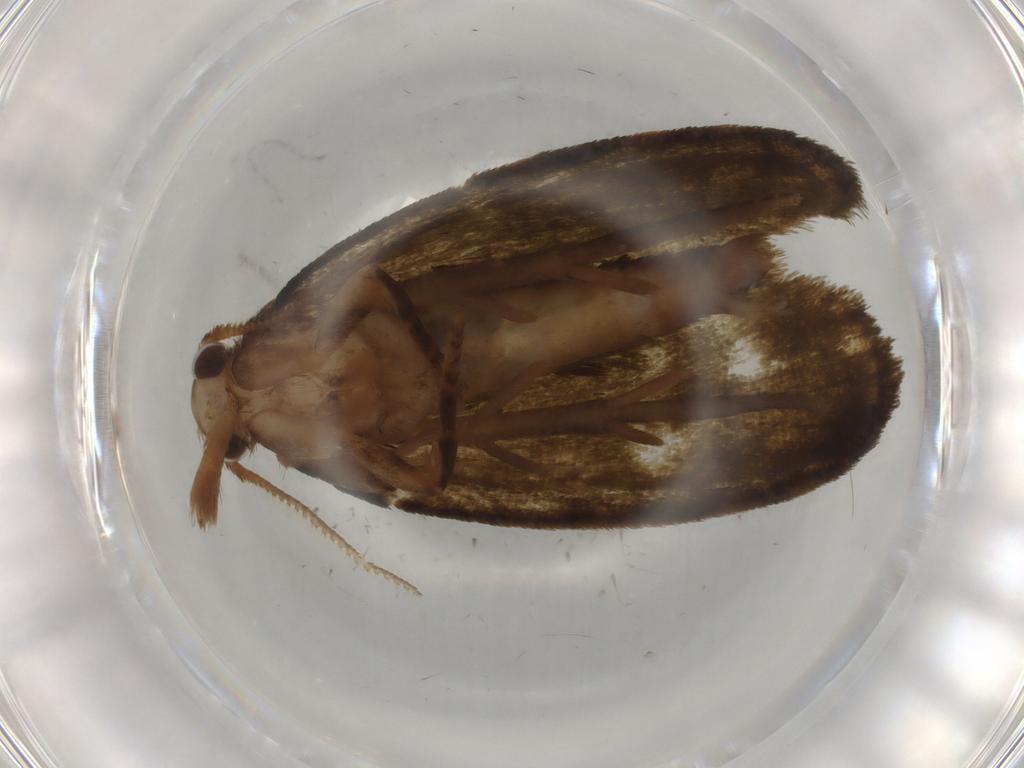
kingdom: Animalia
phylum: Arthropoda
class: Insecta
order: Lepidoptera
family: Geometridae
